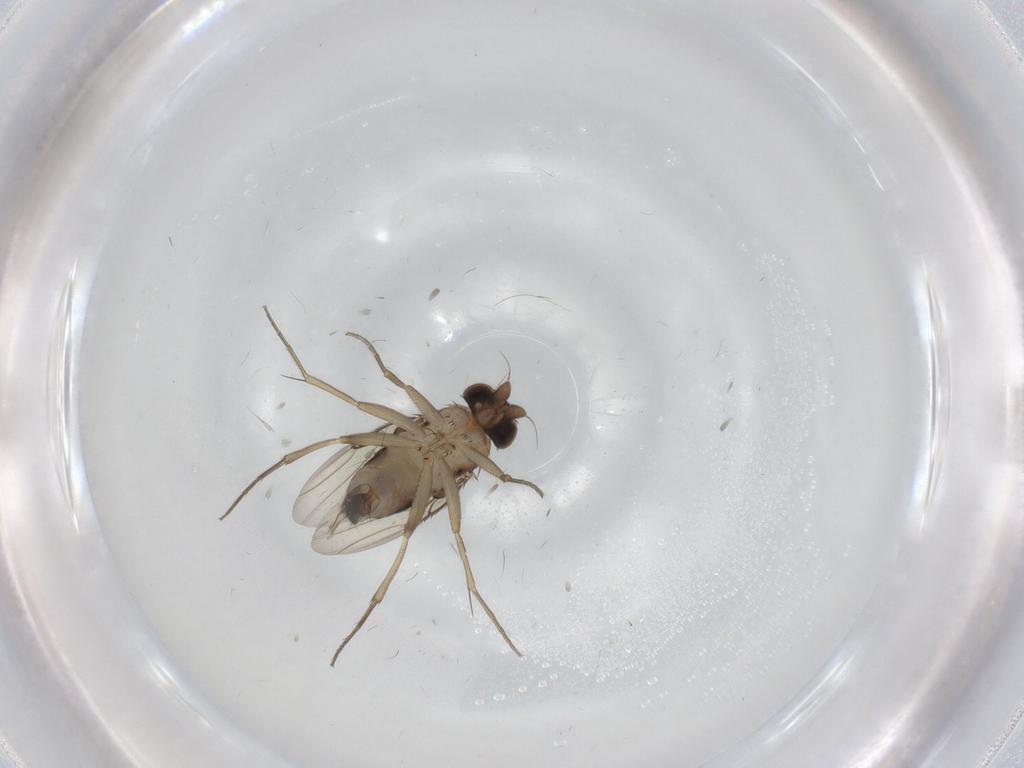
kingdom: Animalia
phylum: Arthropoda
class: Insecta
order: Diptera
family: Phoridae
